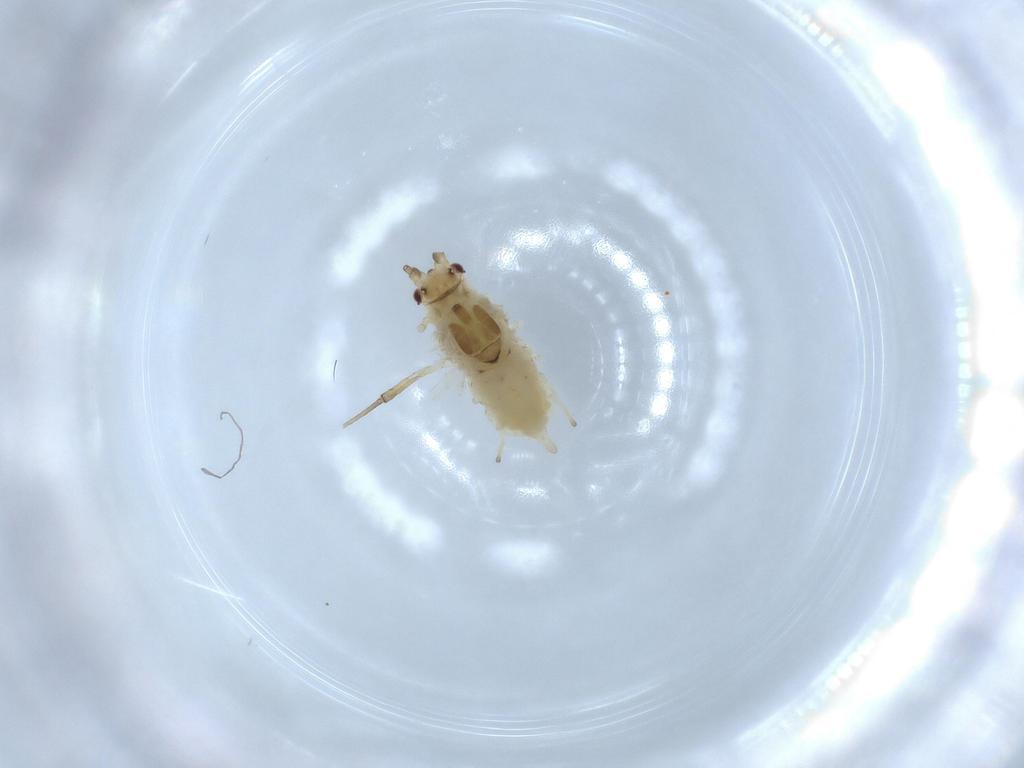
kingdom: Animalia
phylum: Arthropoda
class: Insecta
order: Hemiptera
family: Aphididae
